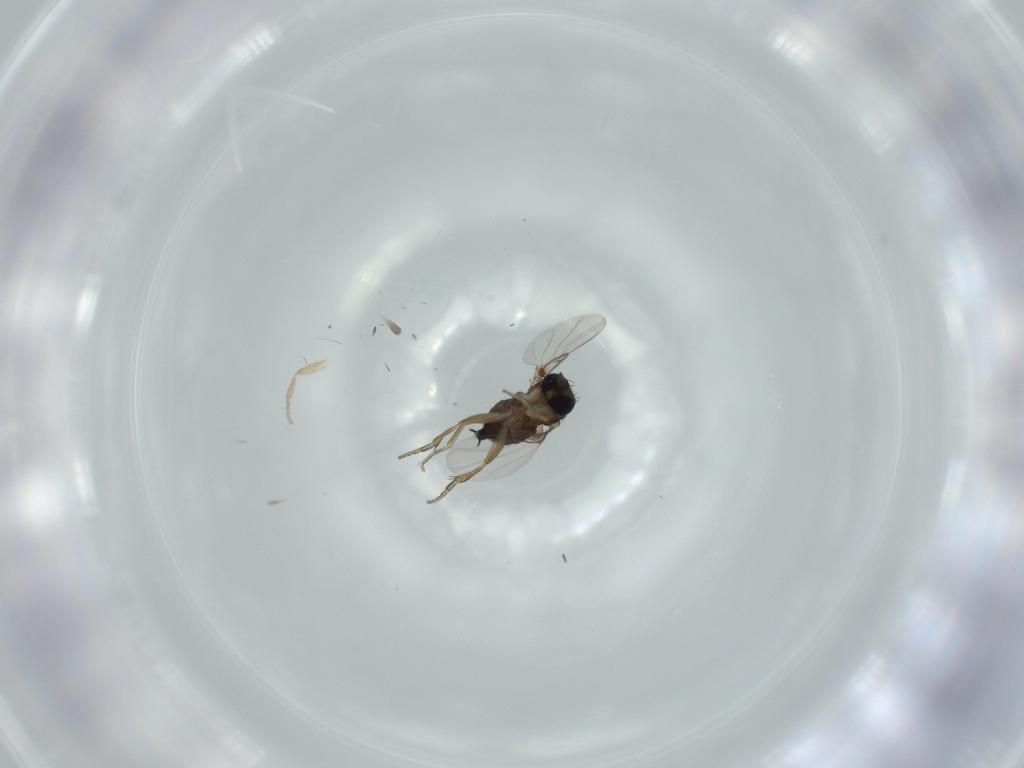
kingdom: Animalia
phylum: Arthropoda
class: Insecta
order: Diptera
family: Phoridae
